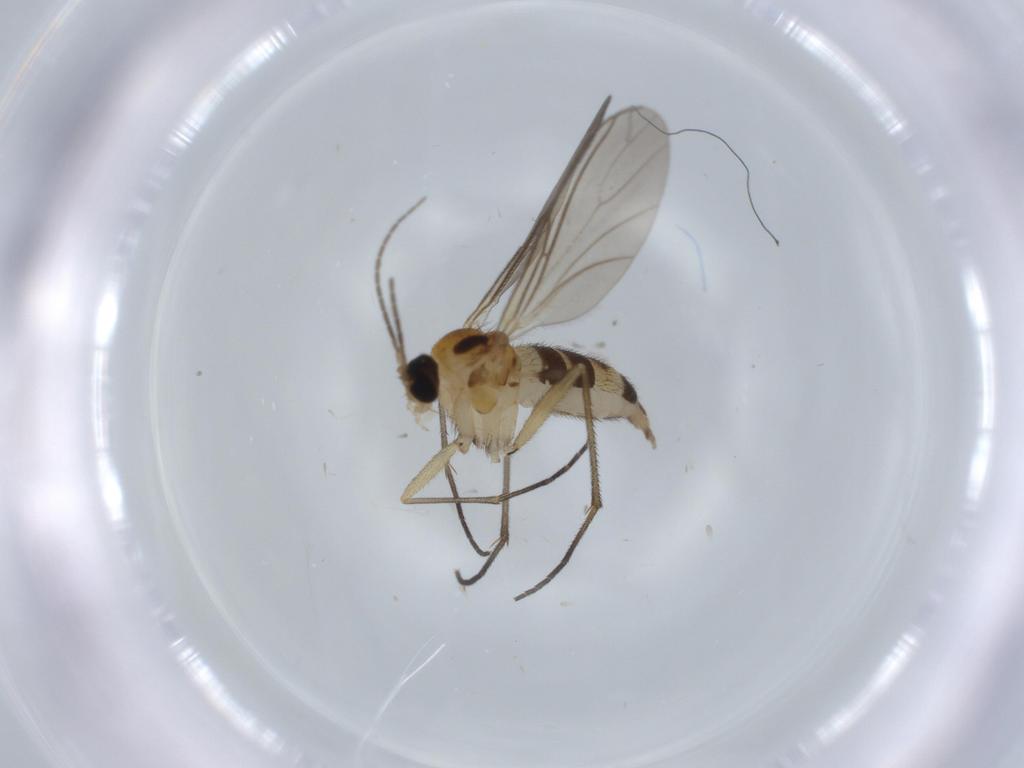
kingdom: Animalia
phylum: Arthropoda
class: Insecta
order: Diptera
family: Sciaridae
